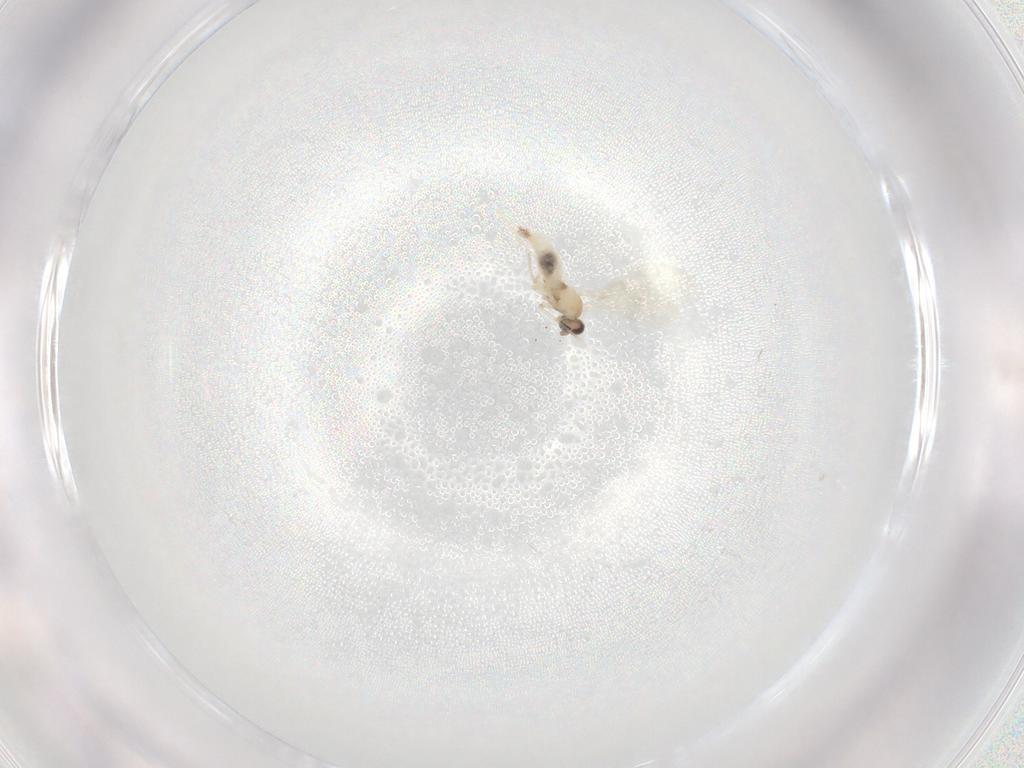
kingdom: Animalia
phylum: Arthropoda
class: Insecta
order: Diptera
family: Cecidomyiidae
